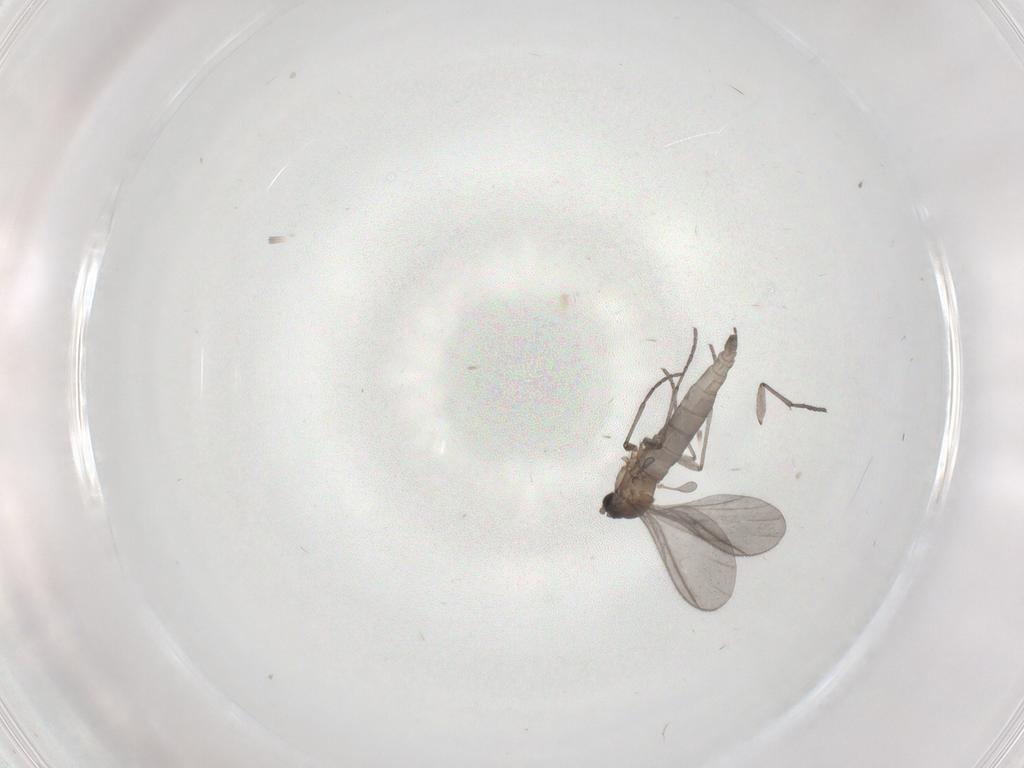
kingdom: Animalia
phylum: Arthropoda
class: Insecta
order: Diptera
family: Sciaridae
